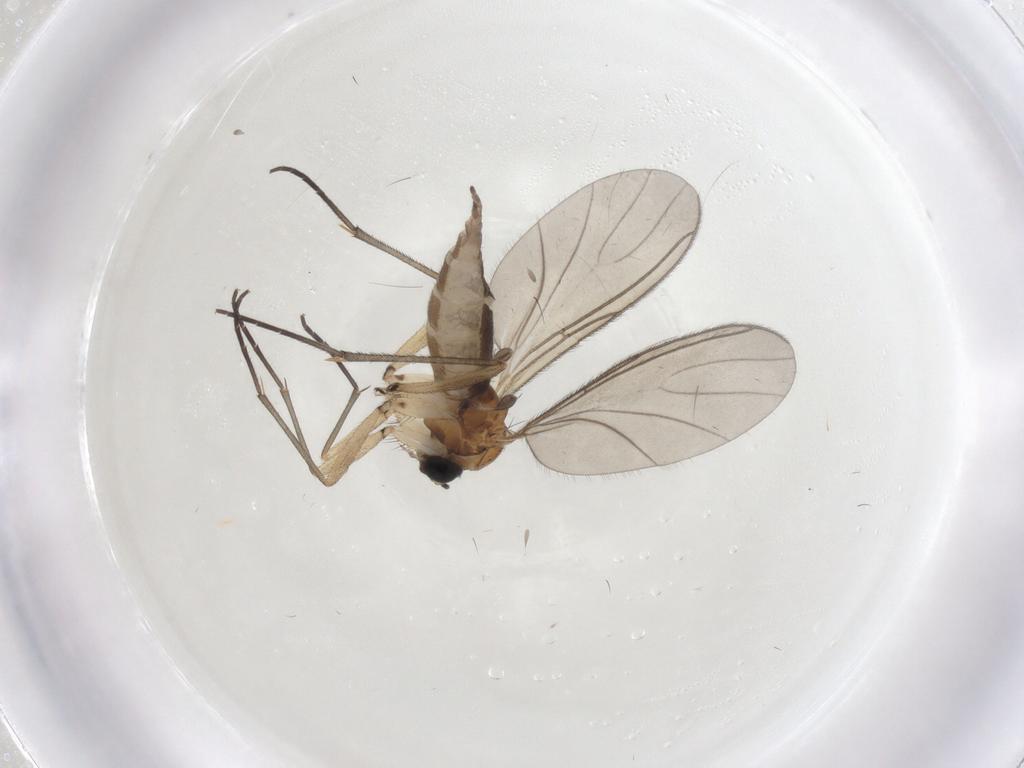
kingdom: Animalia
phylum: Arthropoda
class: Insecta
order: Diptera
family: Sciaridae
